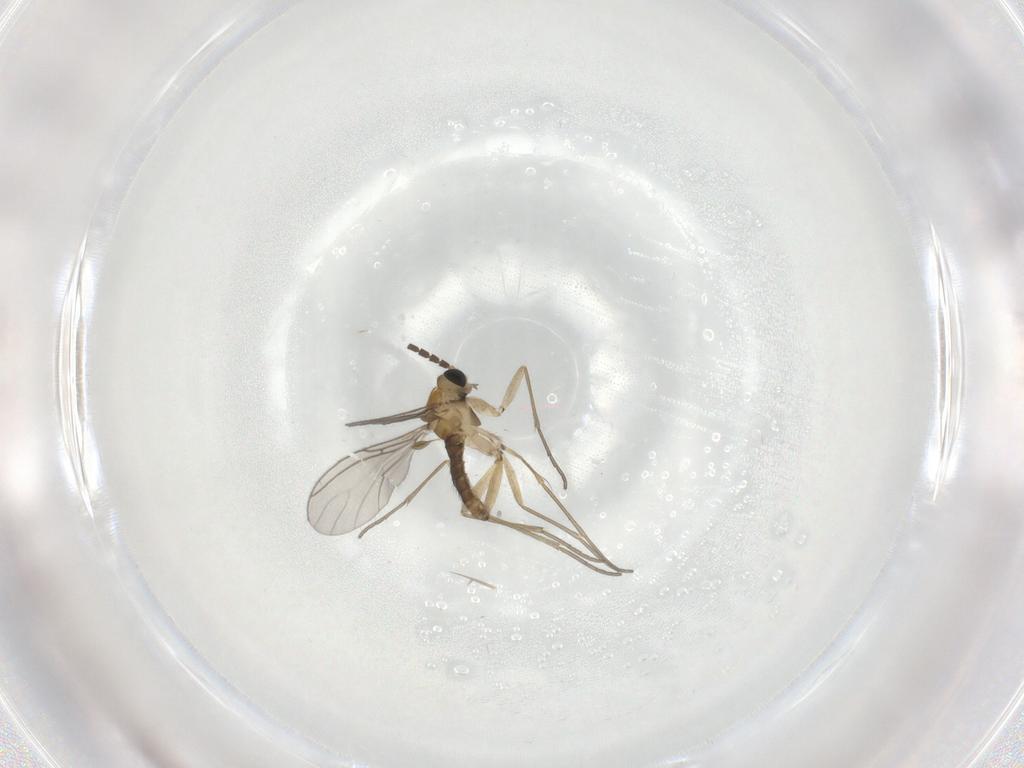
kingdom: Animalia
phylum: Arthropoda
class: Insecta
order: Diptera
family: Sciaridae
